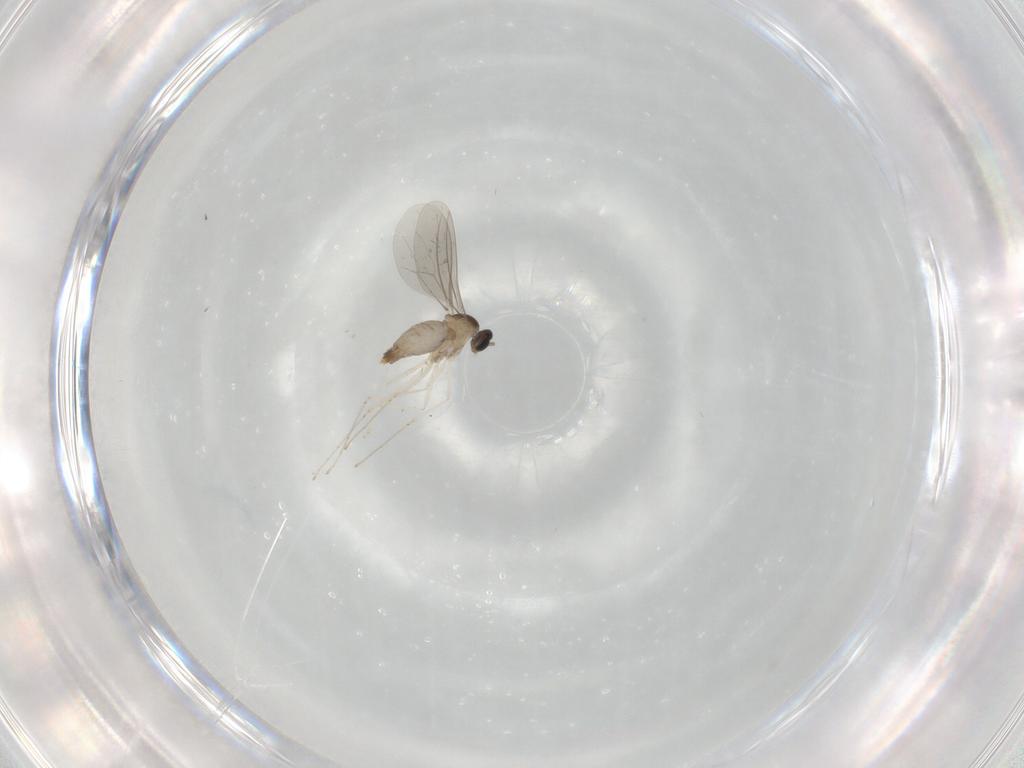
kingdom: Animalia
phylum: Arthropoda
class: Insecta
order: Diptera
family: Cecidomyiidae
